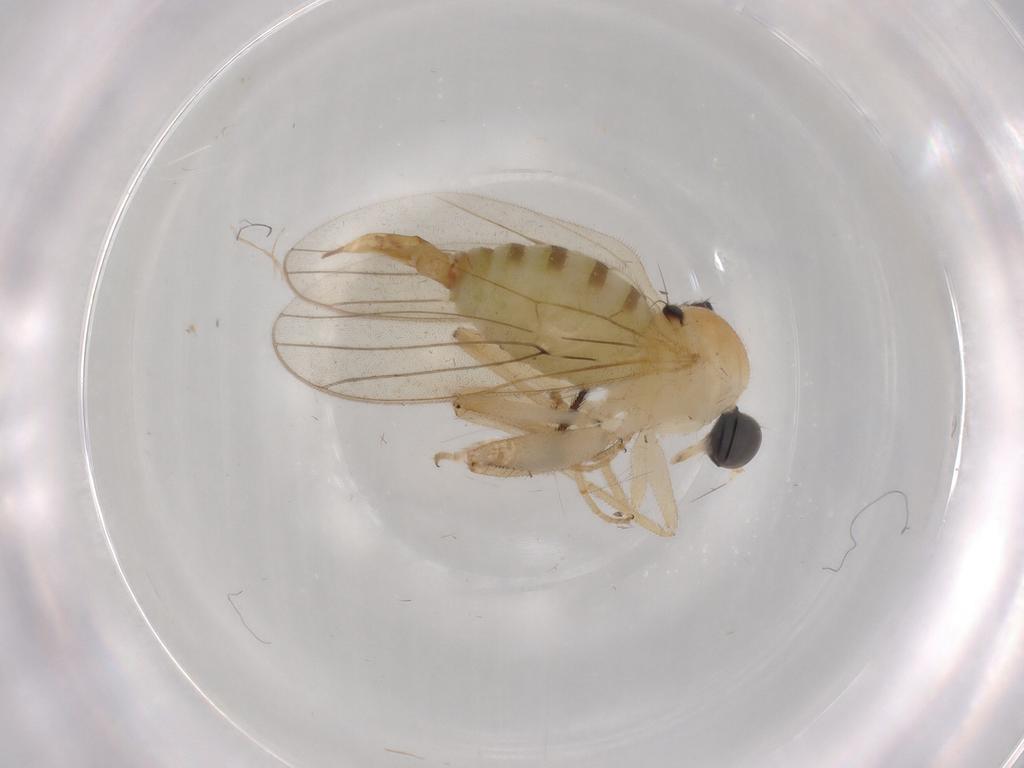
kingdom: Animalia
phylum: Arthropoda
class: Insecta
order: Diptera
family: Hybotidae
